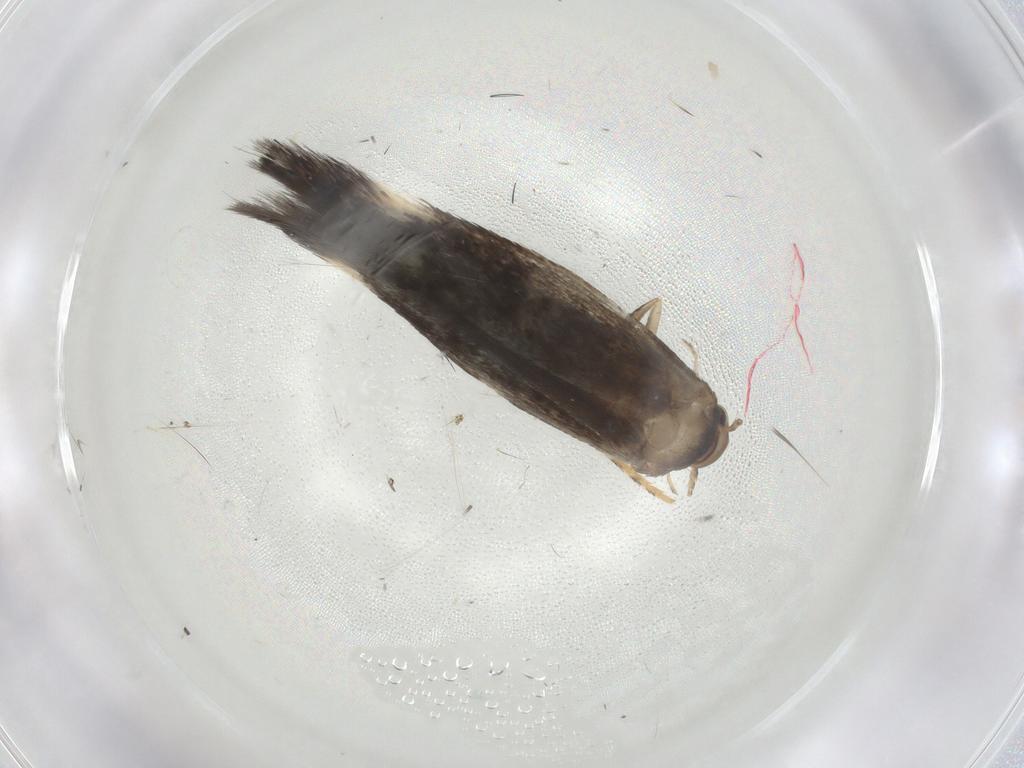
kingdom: Animalia
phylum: Arthropoda
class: Insecta
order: Lepidoptera
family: Elachistidae
